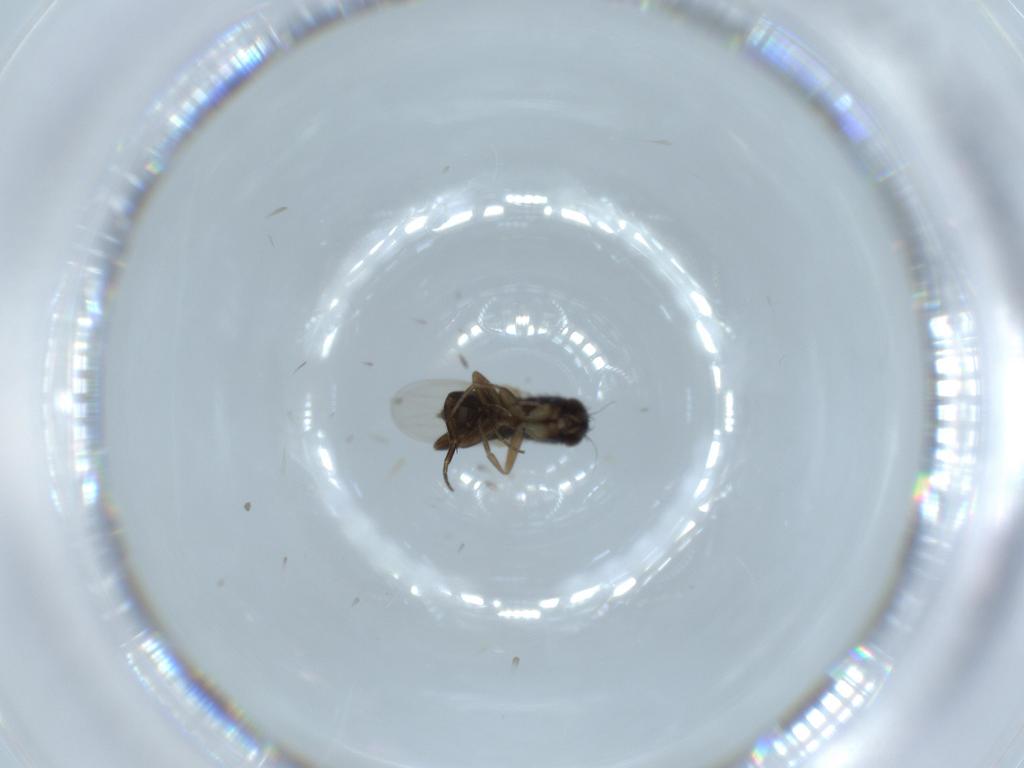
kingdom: Animalia
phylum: Arthropoda
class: Insecta
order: Diptera
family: Phoridae
